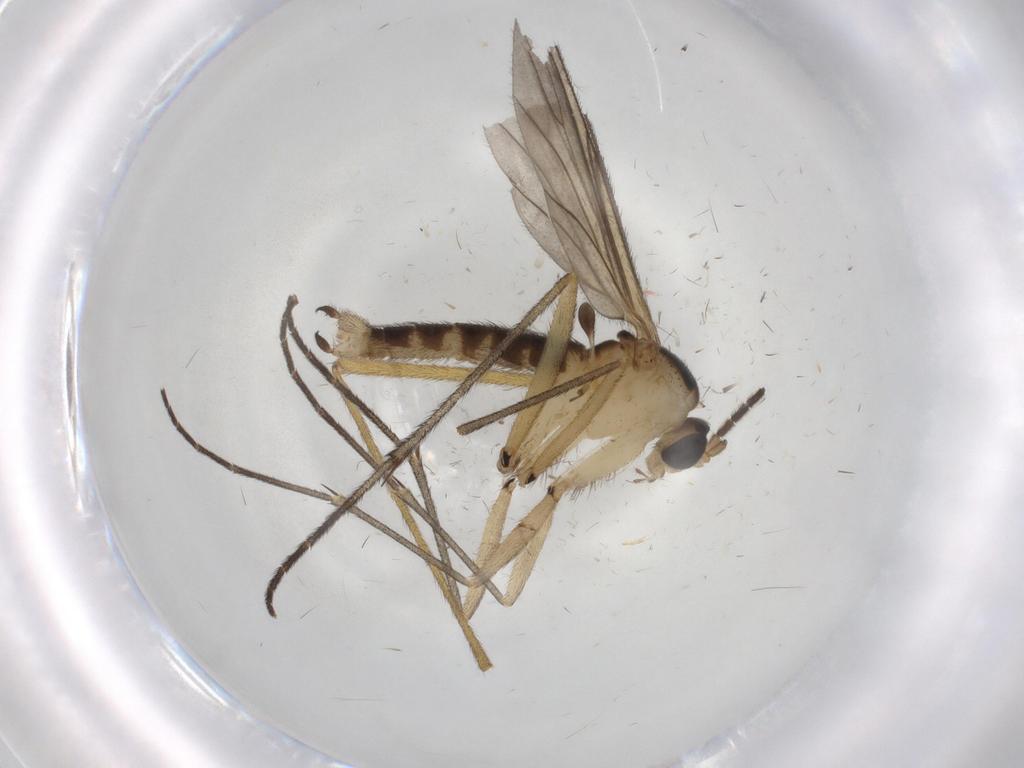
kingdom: Animalia
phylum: Arthropoda
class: Insecta
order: Diptera
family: Sciaridae
